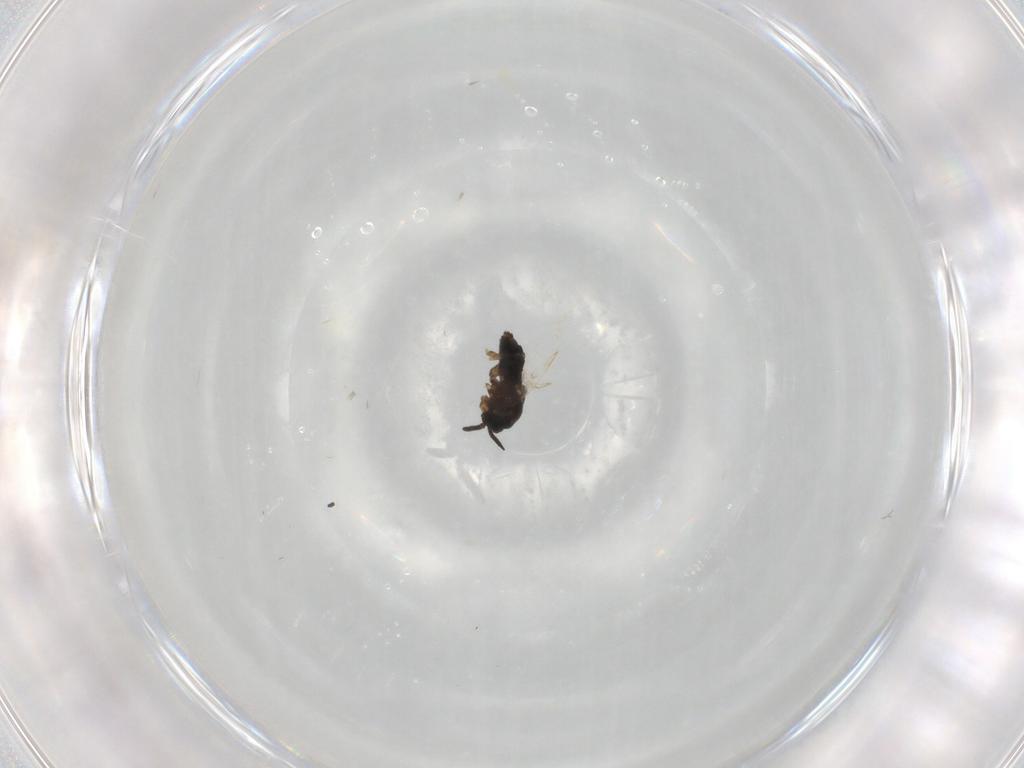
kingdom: Animalia
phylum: Arthropoda
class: Insecta
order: Diptera
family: Scatopsidae
